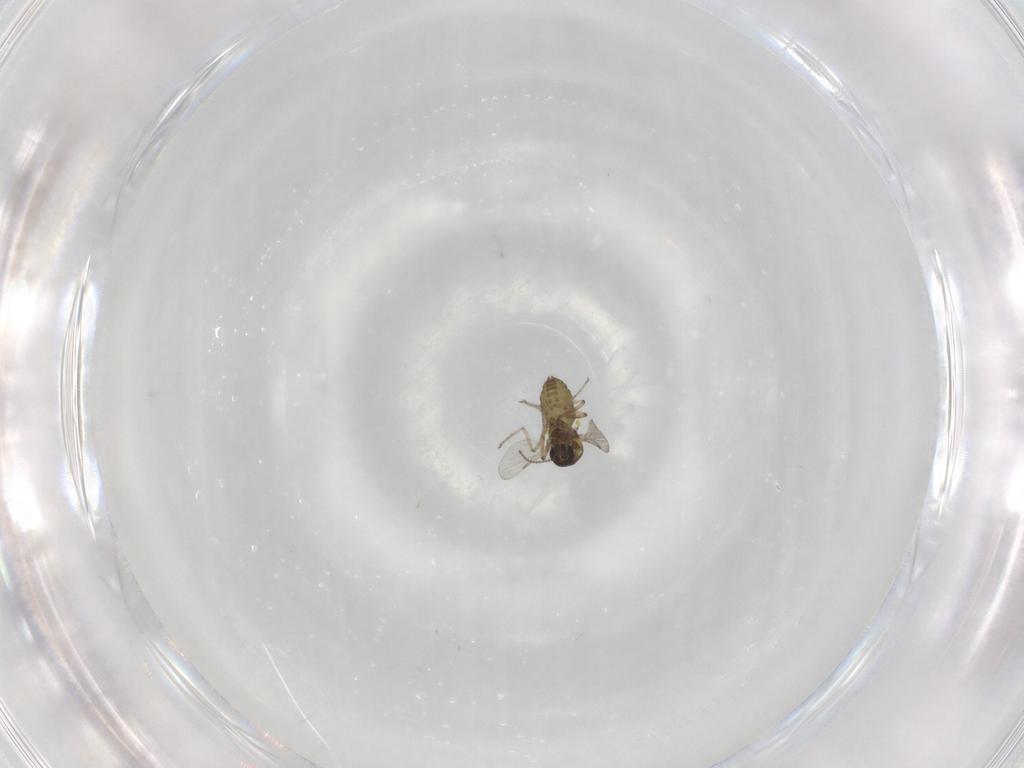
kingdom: Animalia
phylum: Arthropoda
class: Insecta
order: Diptera
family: Ceratopogonidae
